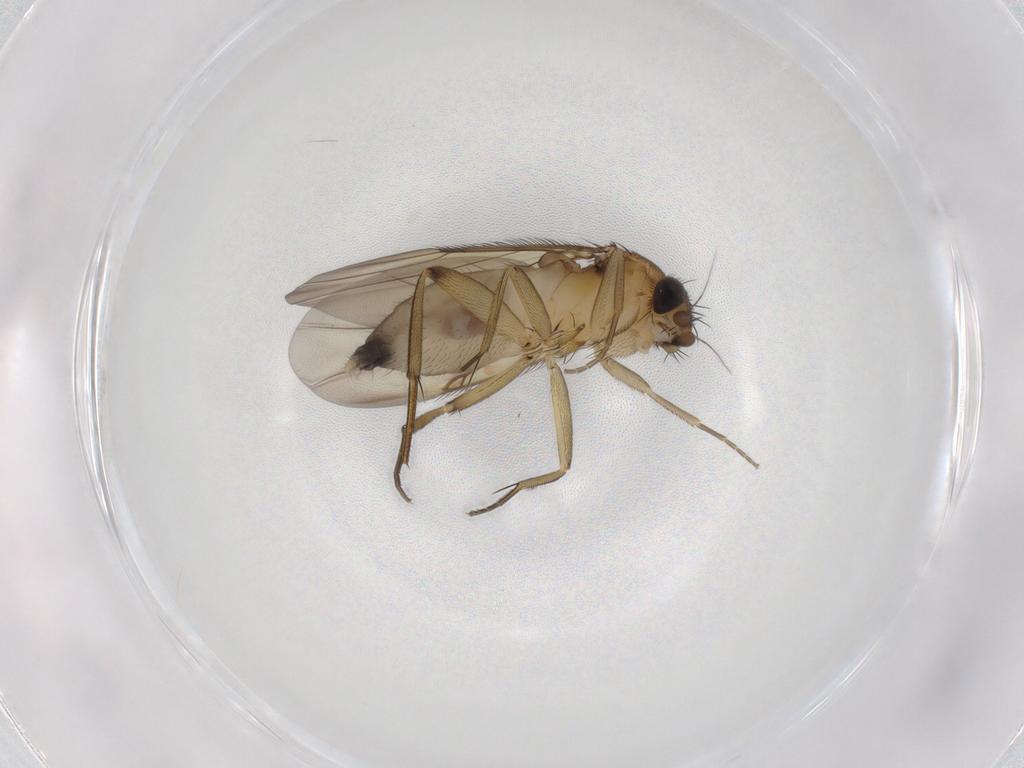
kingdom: Animalia
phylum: Arthropoda
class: Insecta
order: Diptera
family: Phoridae
